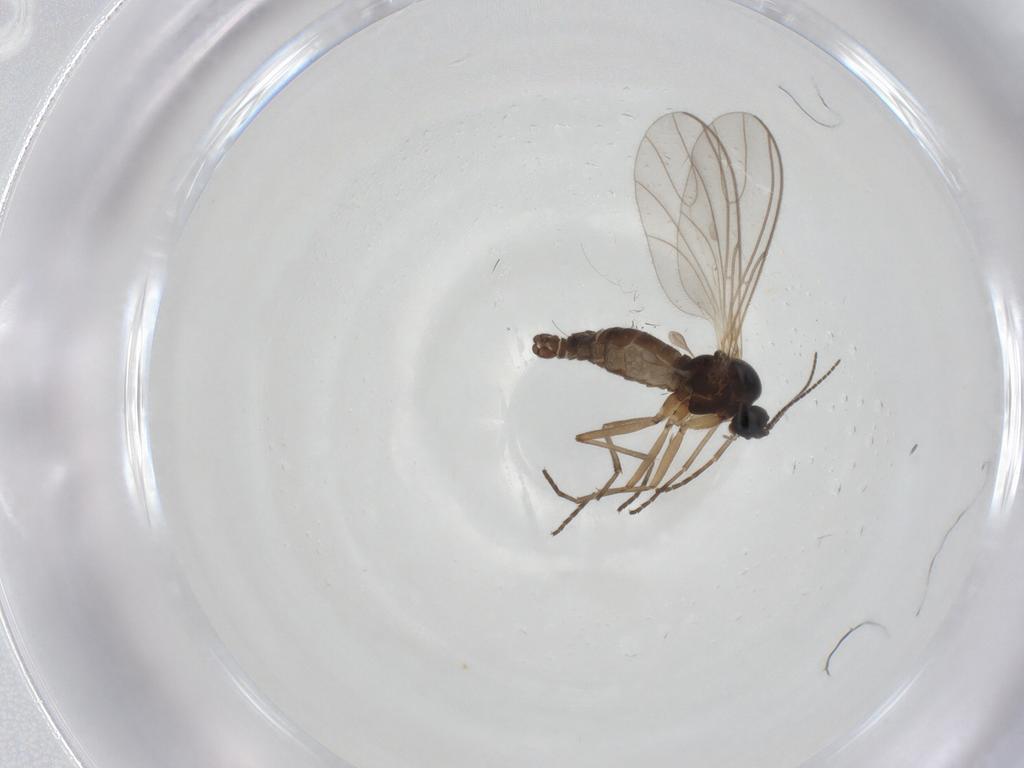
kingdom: Animalia
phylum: Arthropoda
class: Insecta
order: Diptera
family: Sciaridae
